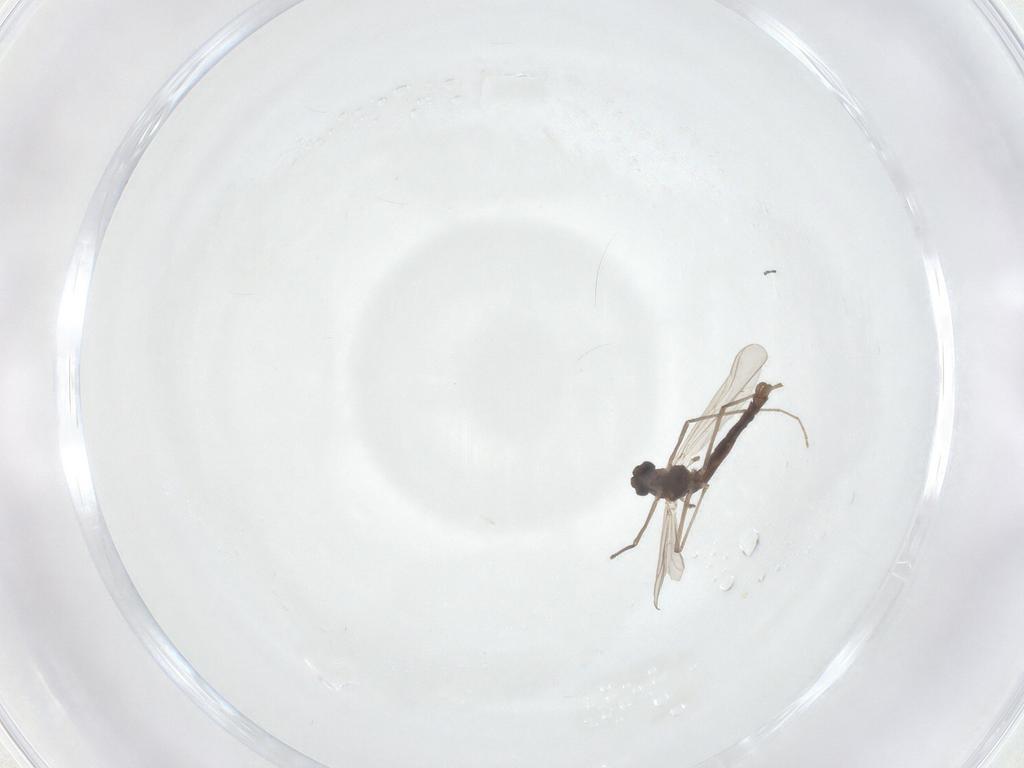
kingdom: Animalia
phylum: Arthropoda
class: Insecta
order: Diptera
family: Chironomidae
